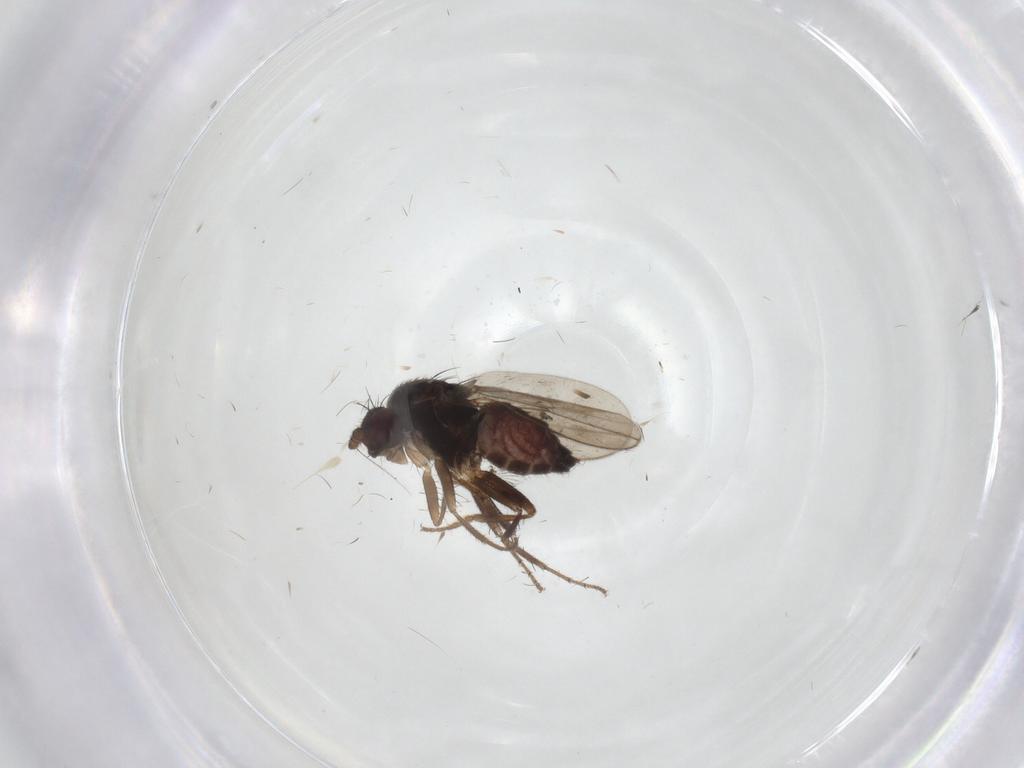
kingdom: Animalia
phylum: Arthropoda
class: Insecta
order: Diptera
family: Sphaeroceridae
